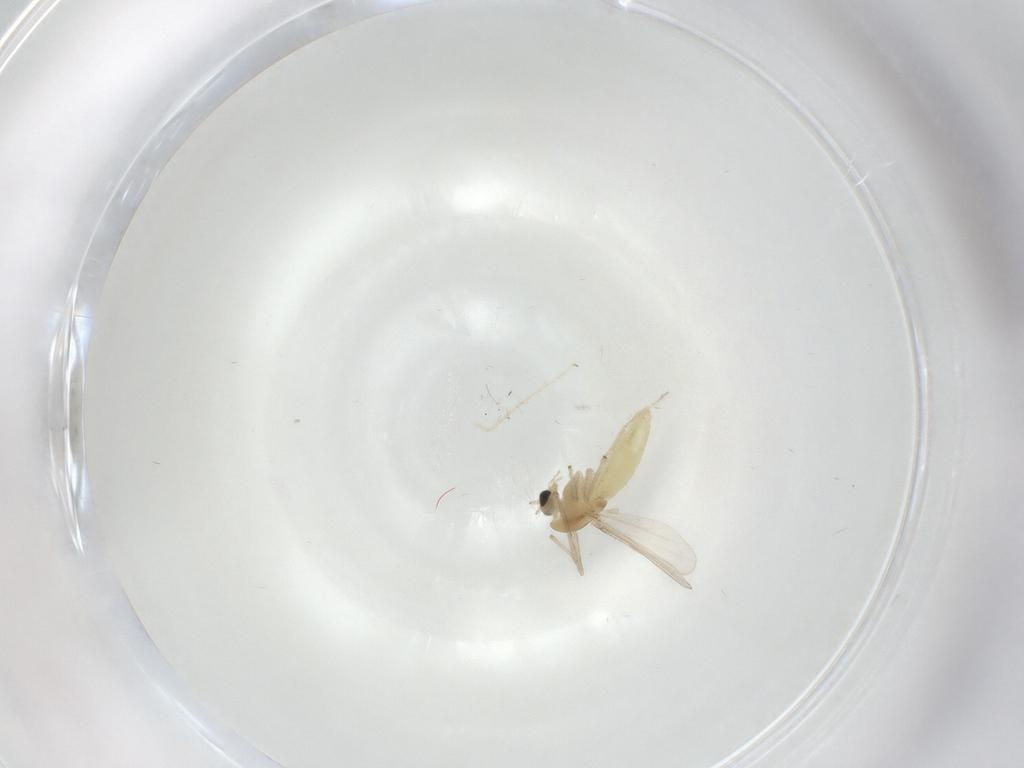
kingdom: Animalia
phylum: Arthropoda
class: Insecta
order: Diptera
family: Chironomidae
